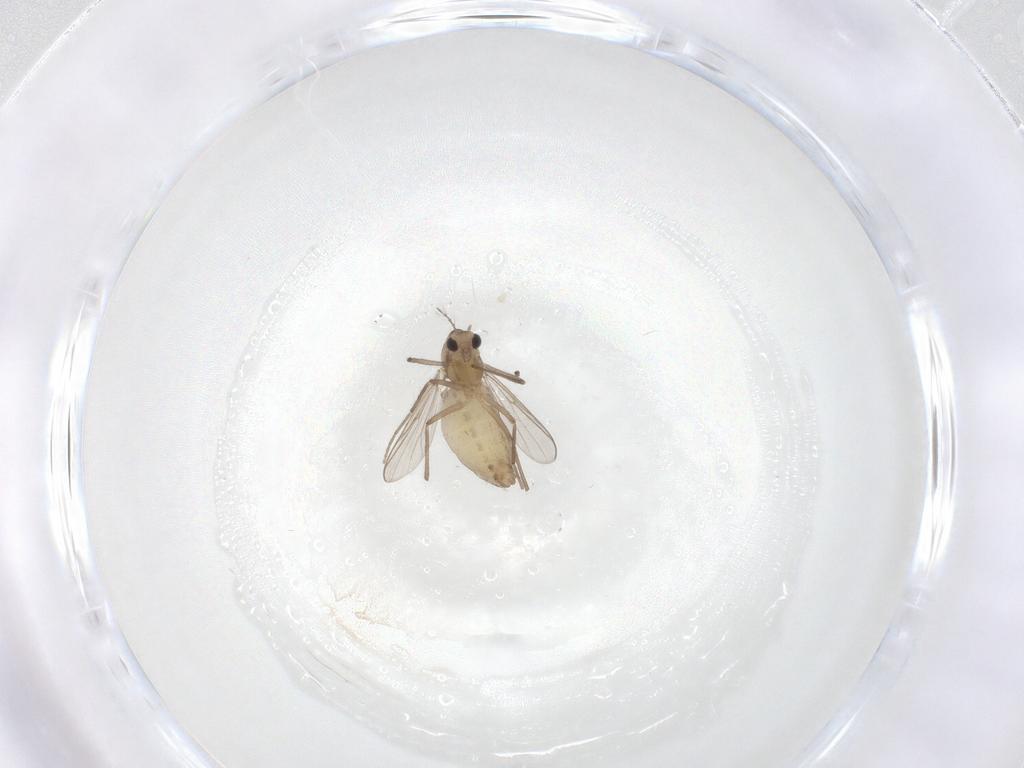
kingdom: Animalia
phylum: Arthropoda
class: Insecta
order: Diptera
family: Chironomidae
